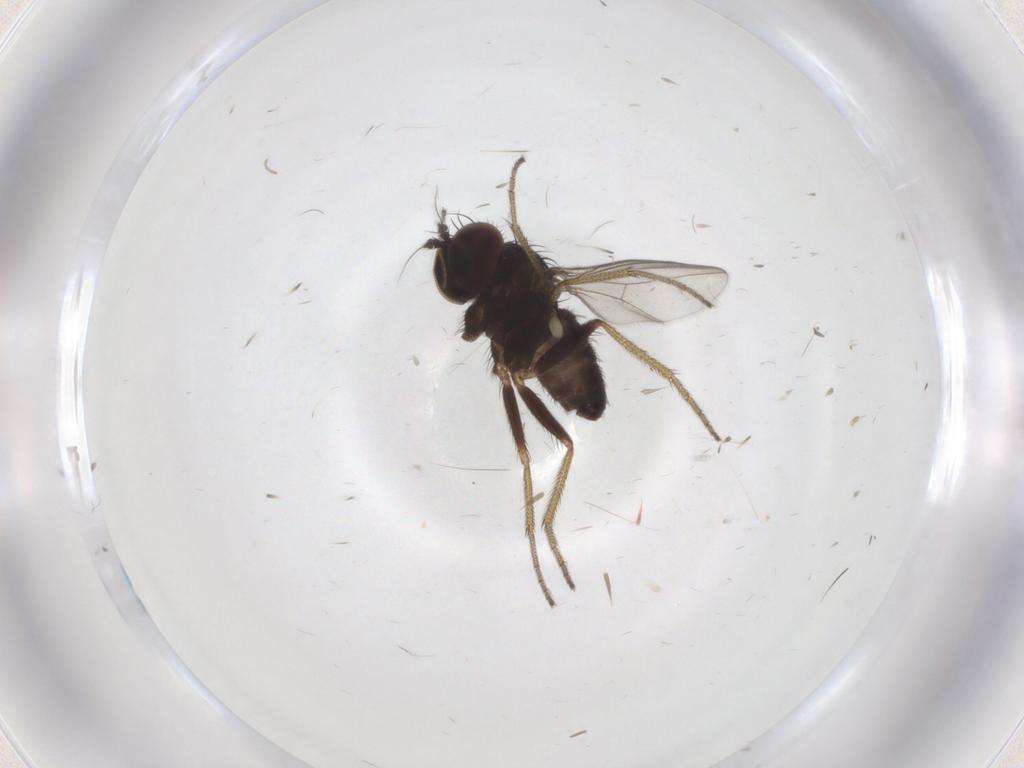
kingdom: Animalia
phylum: Arthropoda
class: Insecta
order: Diptera
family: Dolichopodidae
